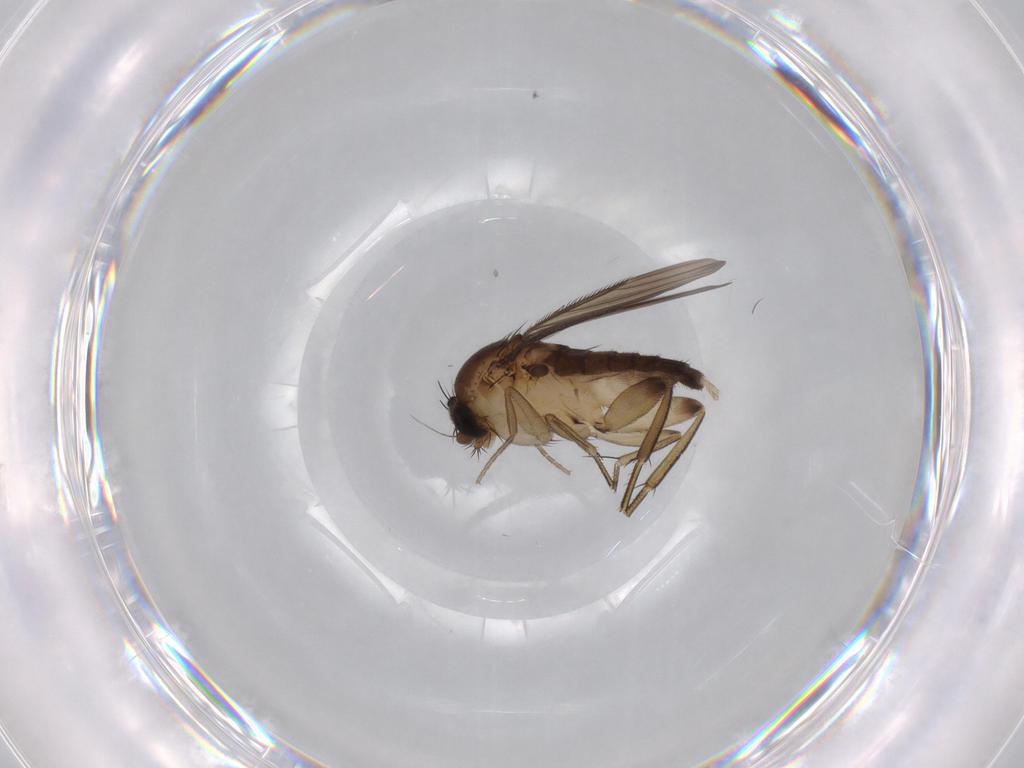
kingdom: Animalia
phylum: Arthropoda
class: Insecta
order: Diptera
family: Phoridae
